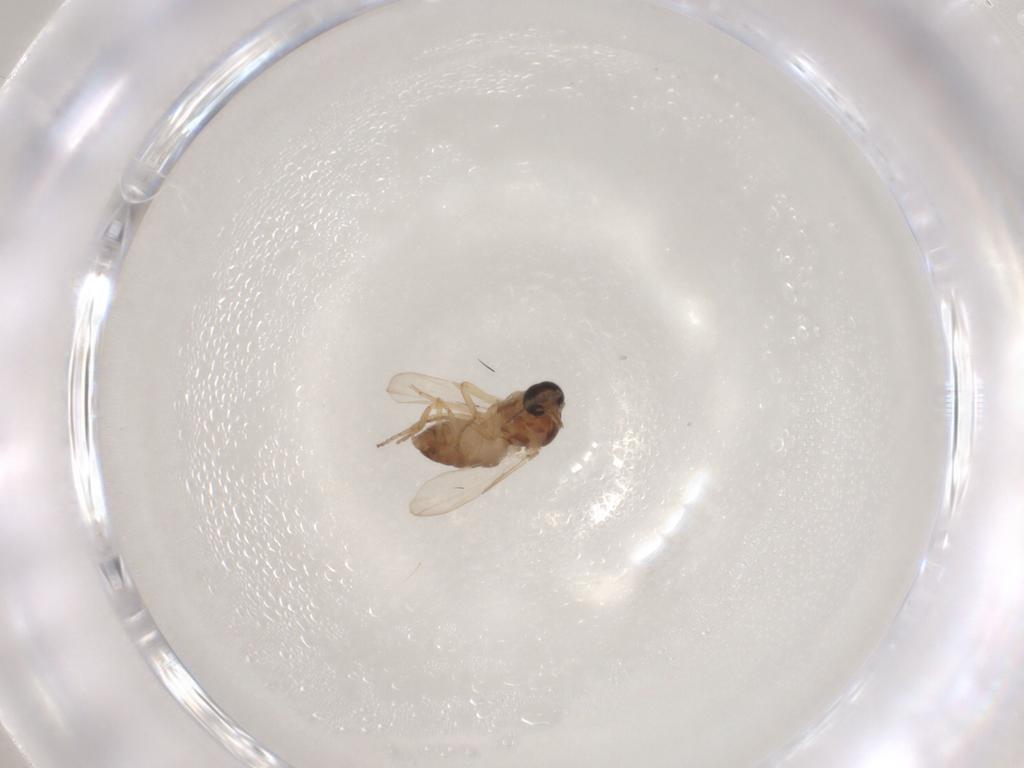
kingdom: Animalia
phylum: Arthropoda
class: Insecta
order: Diptera
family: Ceratopogonidae
